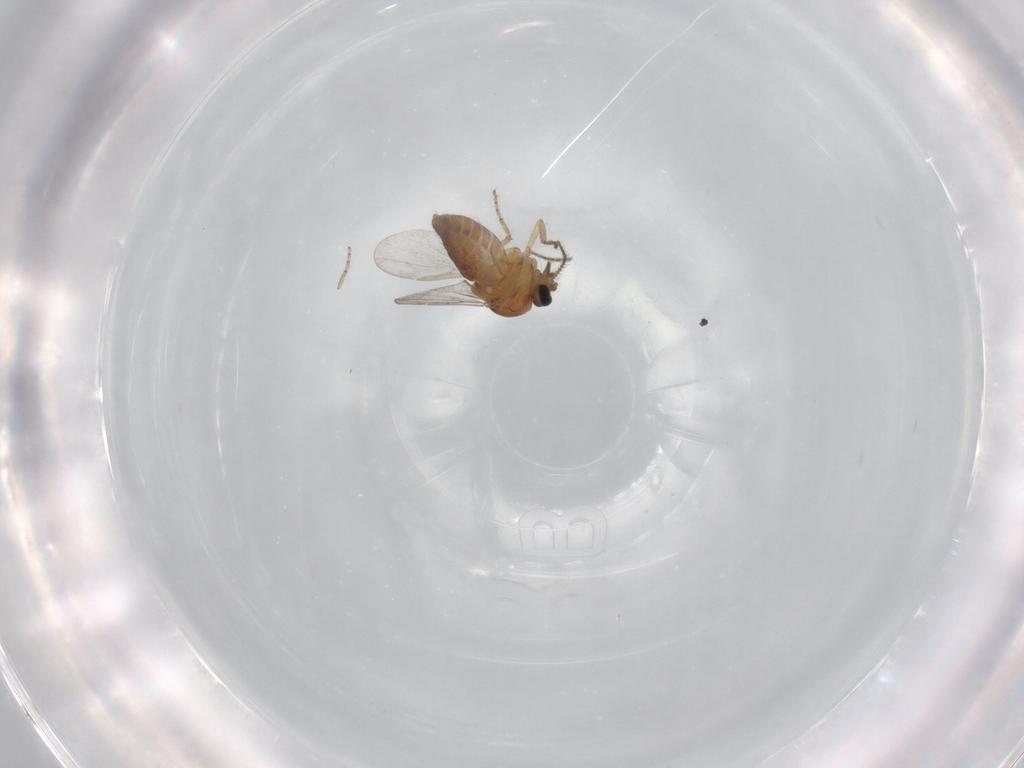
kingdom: Animalia
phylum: Arthropoda
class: Insecta
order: Diptera
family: Ceratopogonidae
